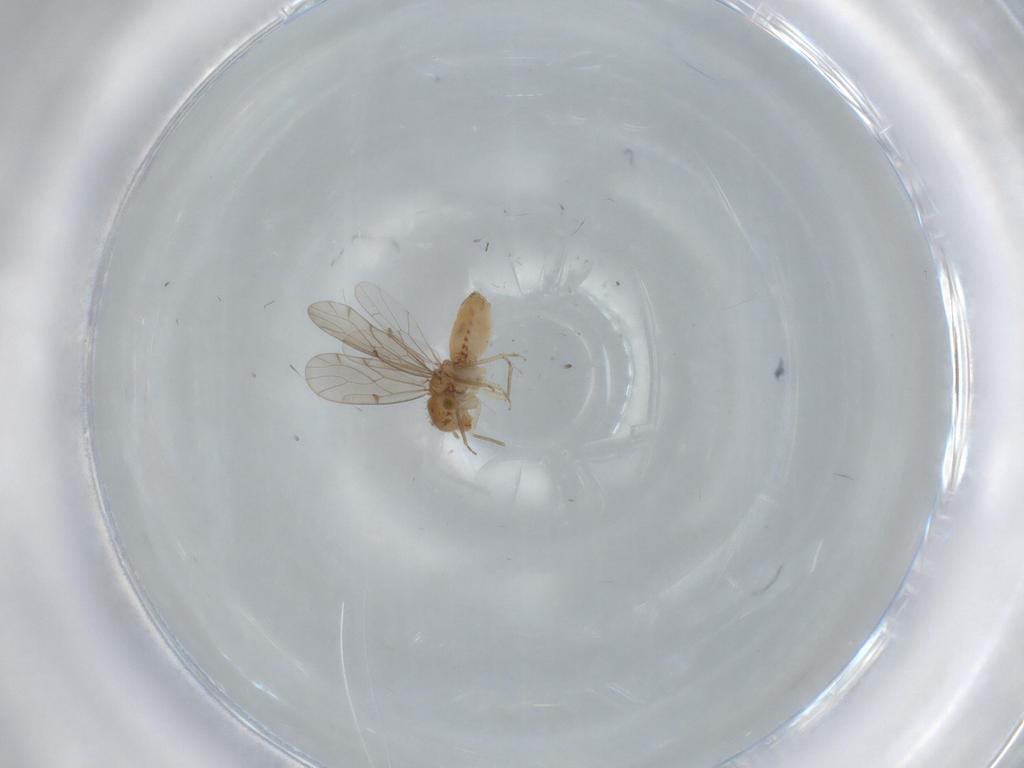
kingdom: Animalia
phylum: Arthropoda
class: Insecta
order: Psocodea
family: Ectopsocidae
